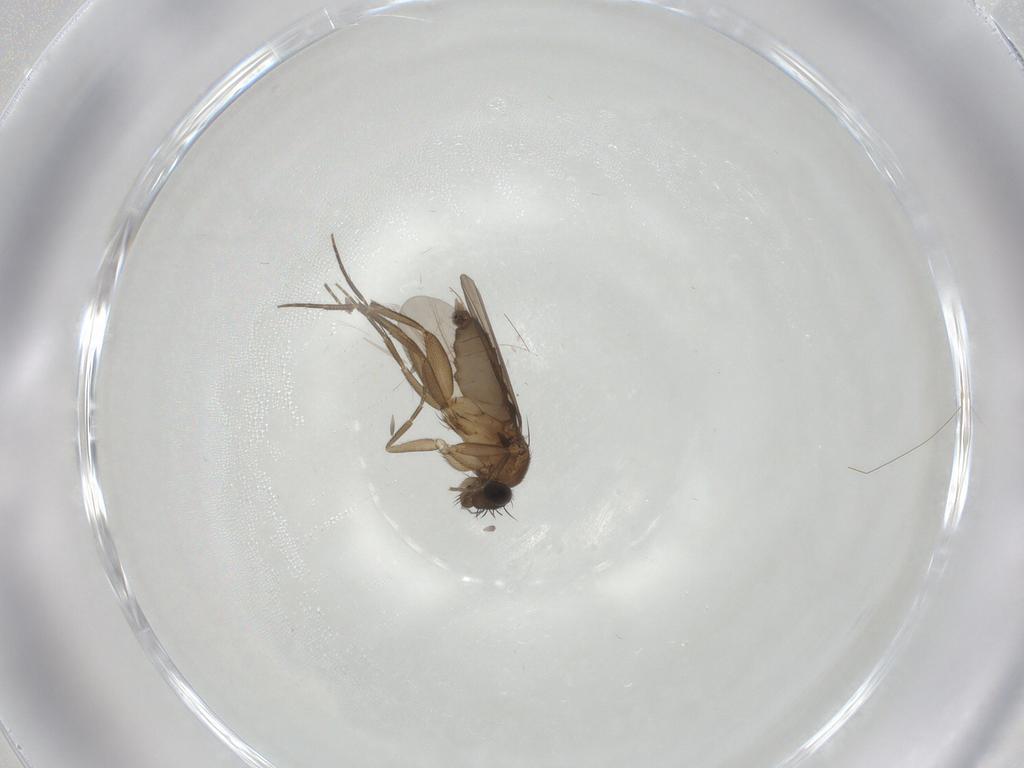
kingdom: Animalia
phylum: Arthropoda
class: Insecta
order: Diptera
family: Phoridae
